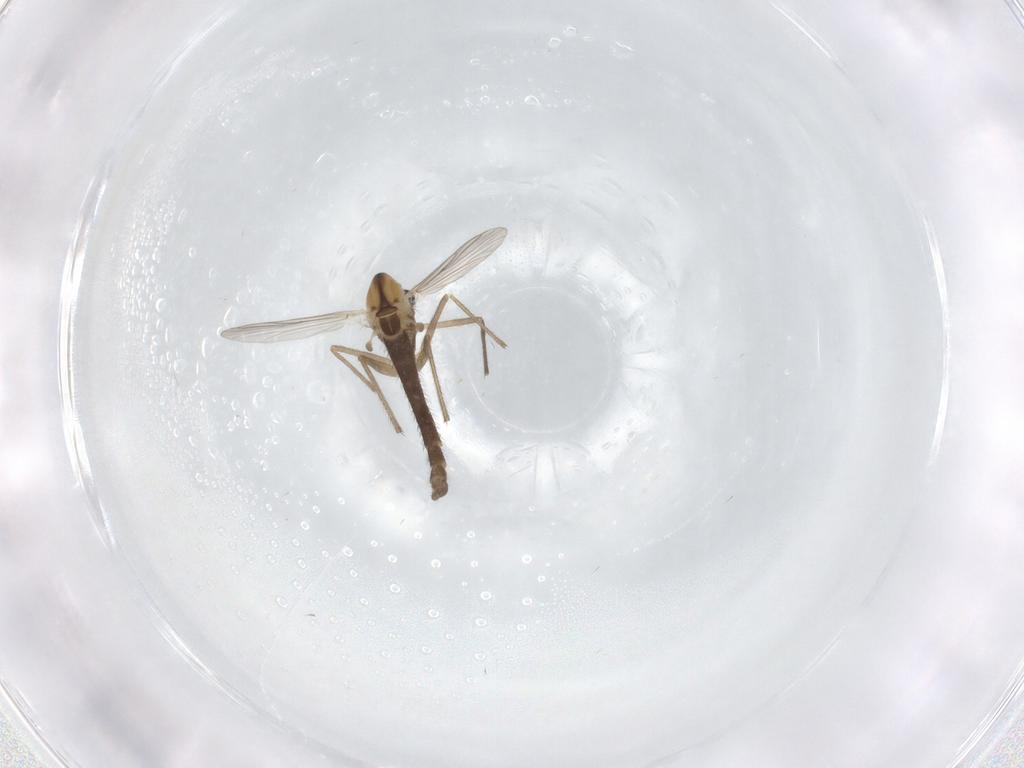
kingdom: Animalia
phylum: Arthropoda
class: Insecta
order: Diptera
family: Chironomidae
